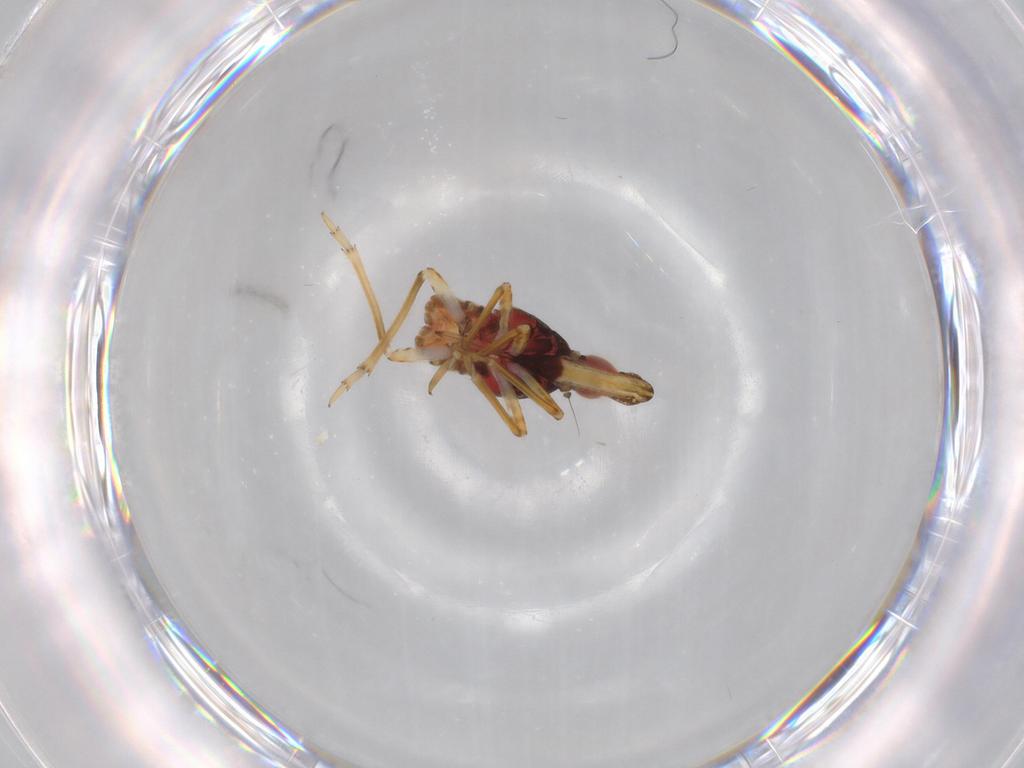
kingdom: Animalia
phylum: Arthropoda
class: Insecta
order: Hemiptera
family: Fulgoroidea_incertae_sedis
